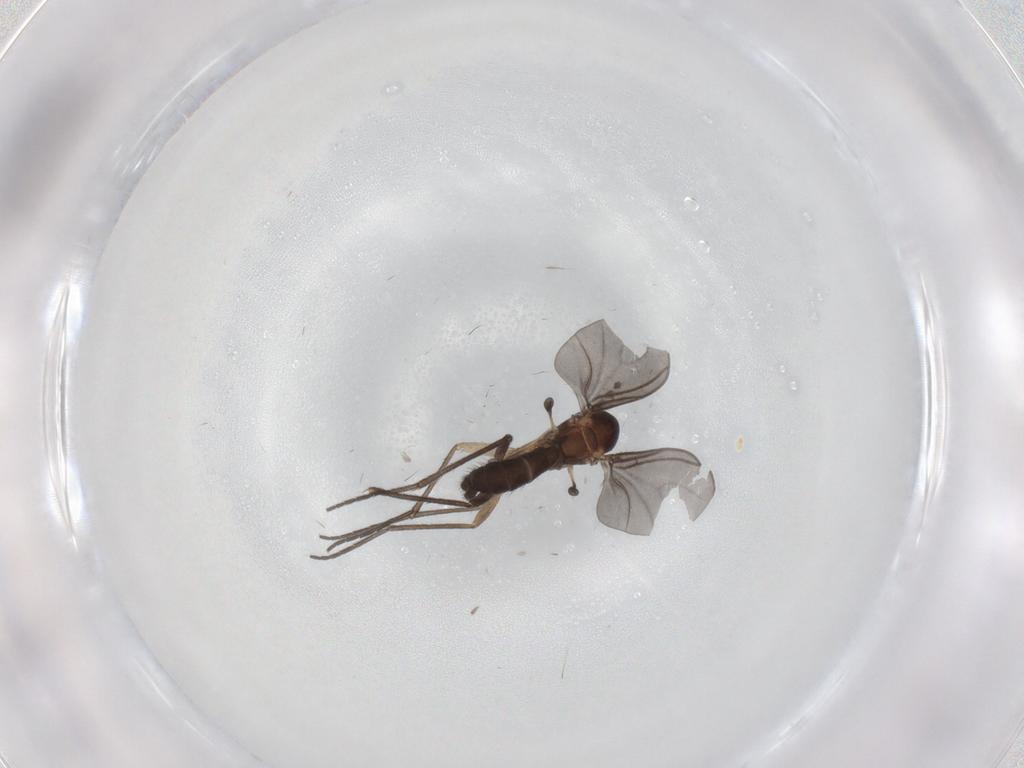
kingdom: Animalia
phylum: Arthropoda
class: Insecta
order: Diptera
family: Sciaridae
